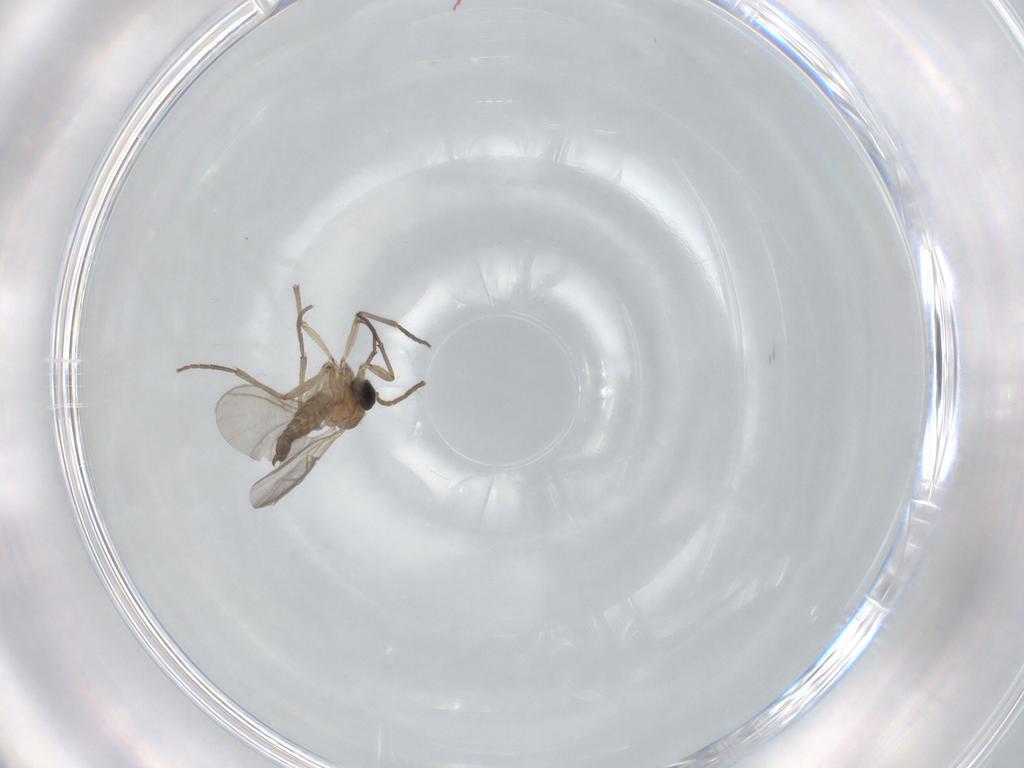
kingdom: Animalia
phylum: Arthropoda
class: Insecta
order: Diptera
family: Sciaridae
